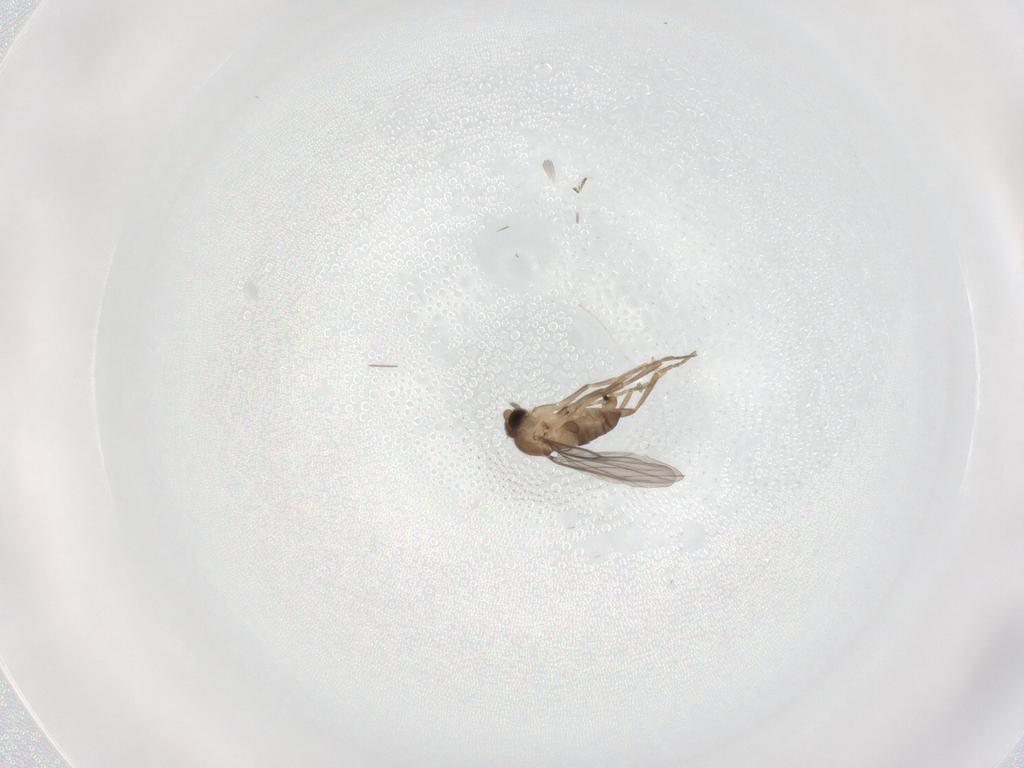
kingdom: Animalia
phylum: Arthropoda
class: Insecta
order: Diptera
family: Cecidomyiidae
